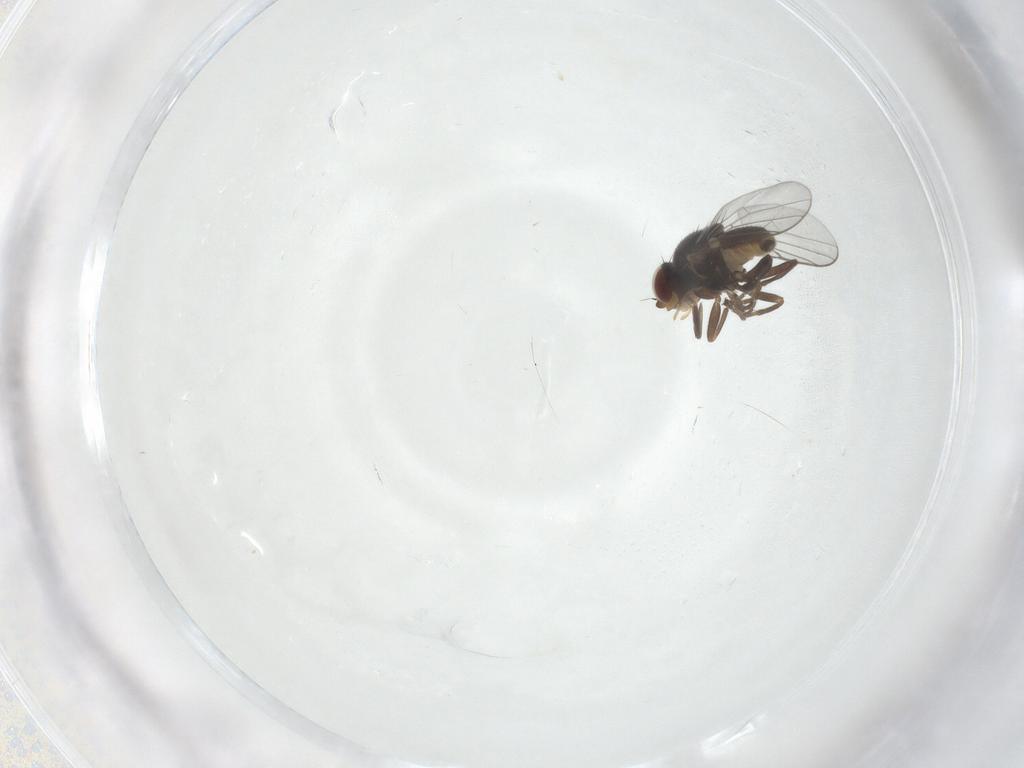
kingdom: Animalia
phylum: Arthropoda
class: Insecta
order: Diptera
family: Chloropidae
